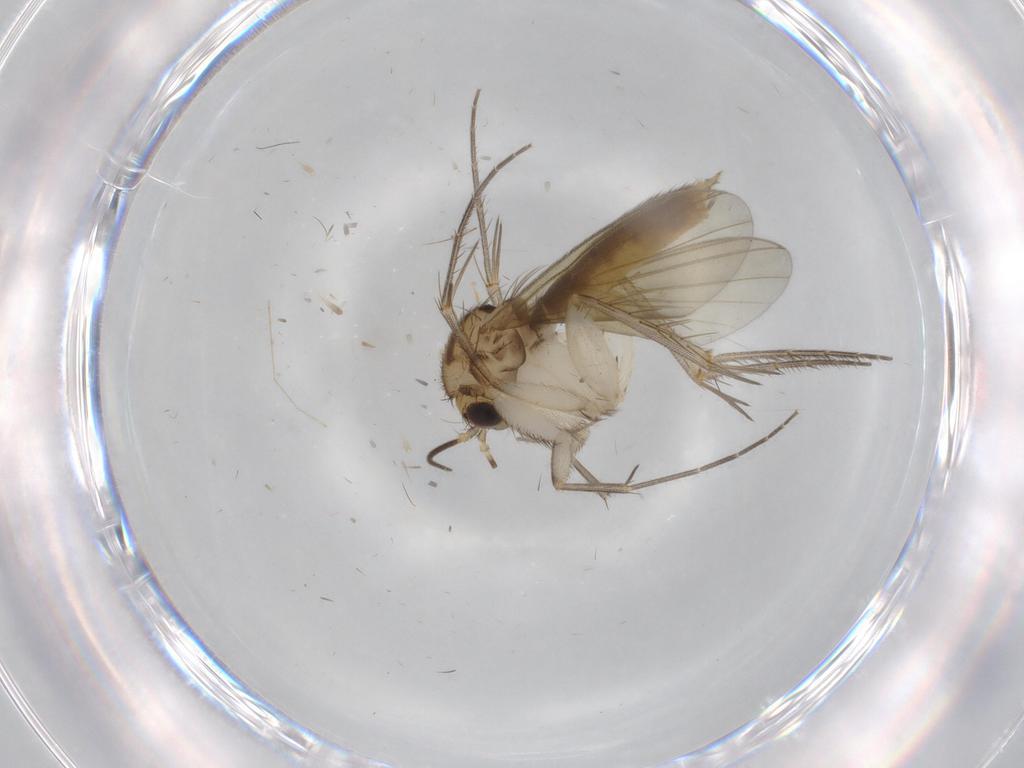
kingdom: Animalia
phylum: Arthropoda
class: Insecta
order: Diptera
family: Mycetophilidae
